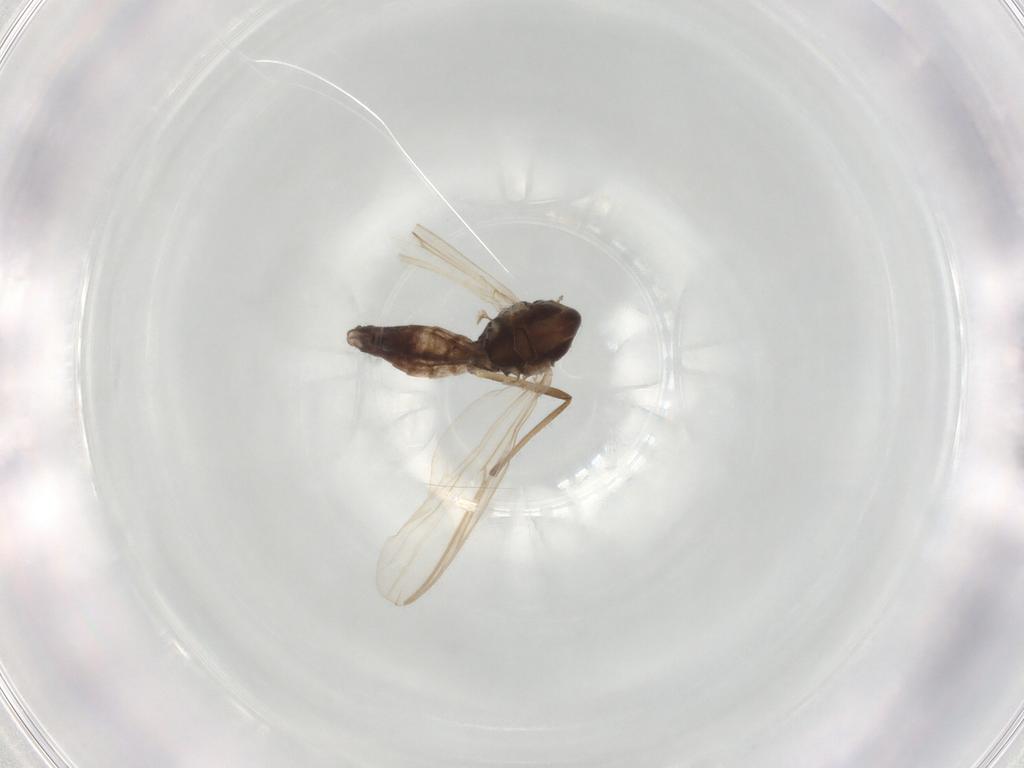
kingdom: Animalia
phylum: Arthropoda
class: Insecta
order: Diptera
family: Chironomidae
